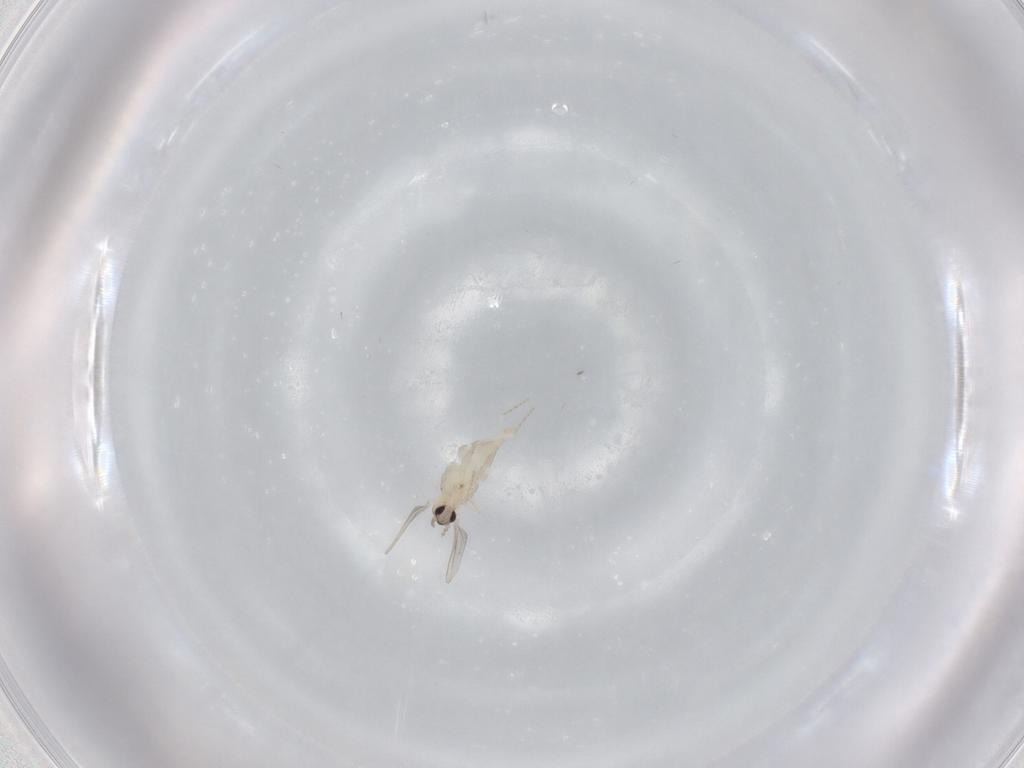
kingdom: Animalia
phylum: Arthropoda
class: Insecta
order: Diptera
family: Cecidomyiidae
